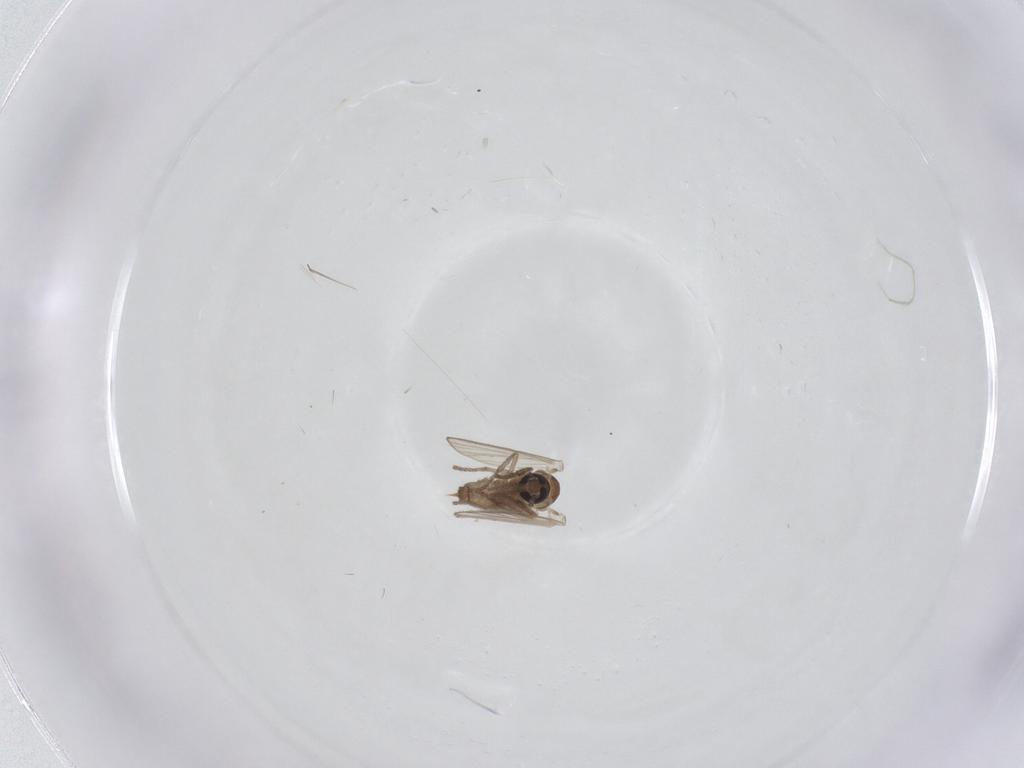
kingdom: Animalia
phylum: Arthropoda
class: Insecta
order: Diptera
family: Psychodidae
